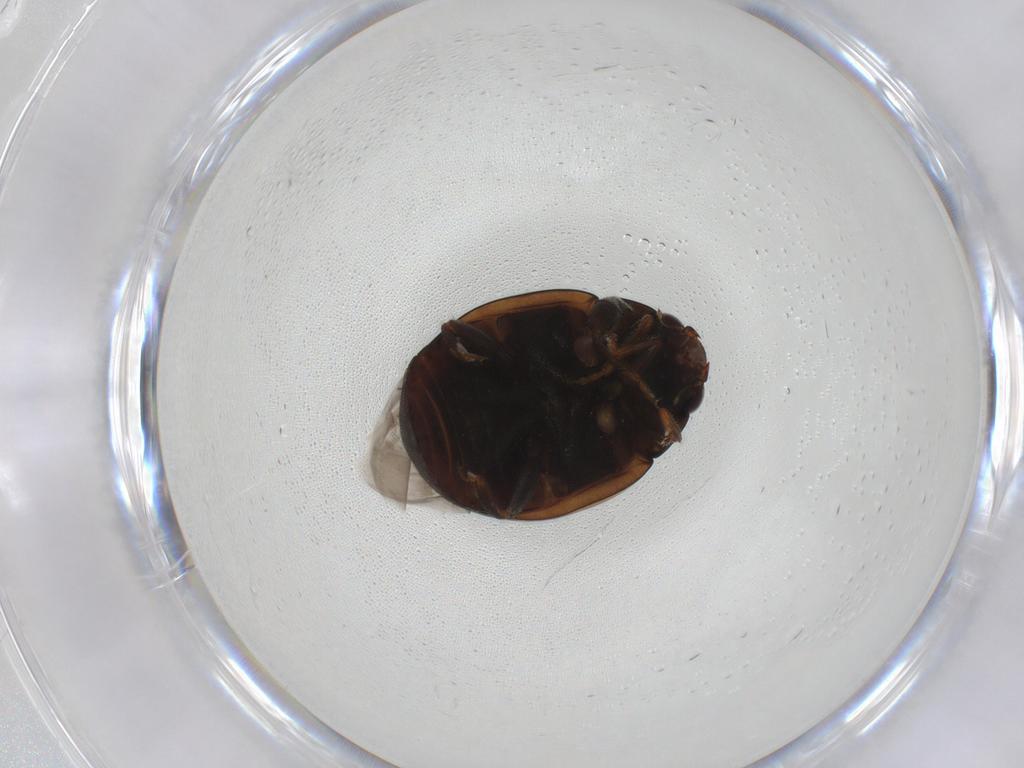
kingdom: Animalia
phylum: Arthropoda
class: Insecta
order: Coleoptera
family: Coccinellidae
